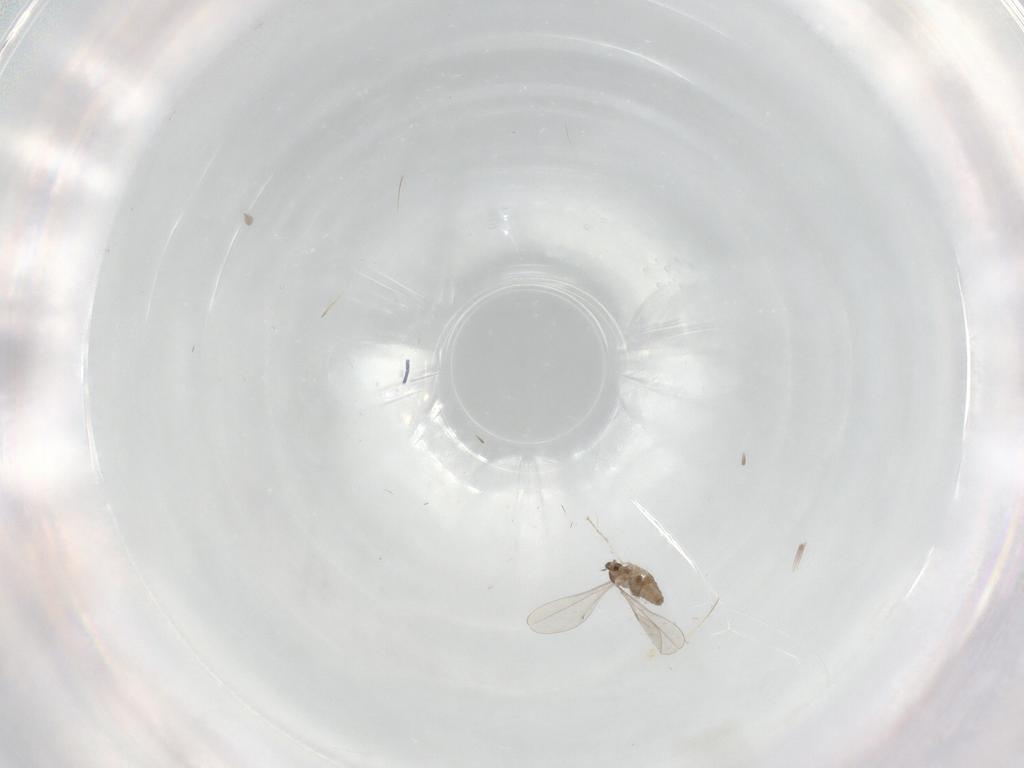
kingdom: Animalia
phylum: Arthropoda
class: Insecta
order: Diptera
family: Cecidomyiidae
